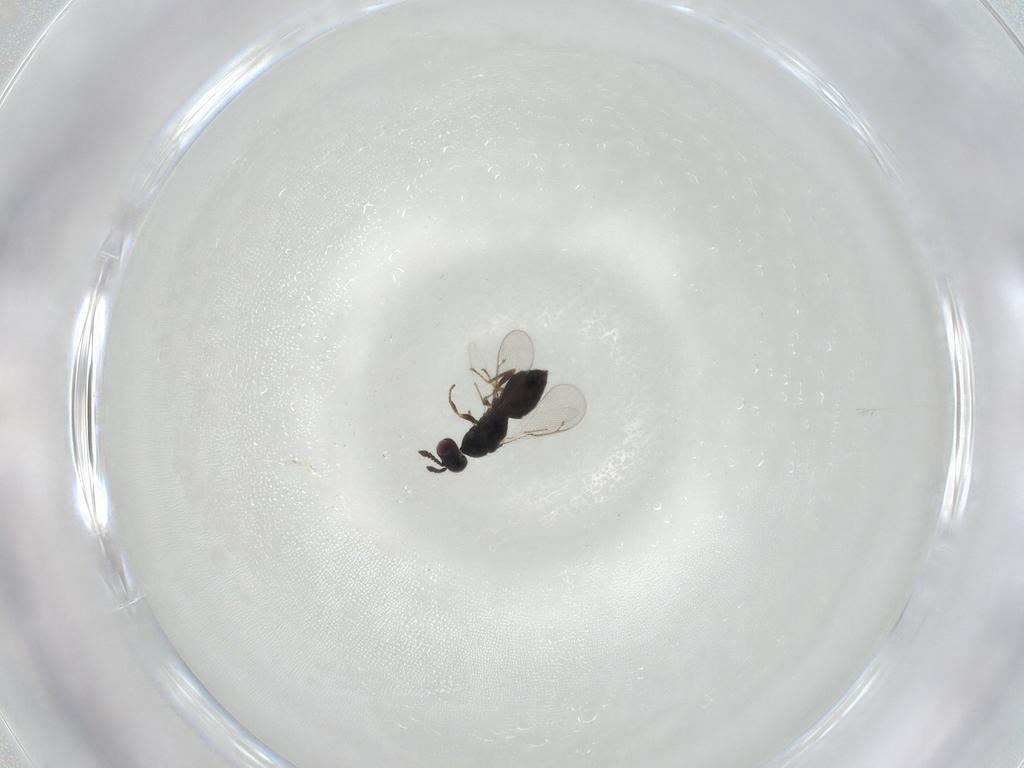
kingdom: Animalia
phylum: Arthropoda
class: Insecta
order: Hymenoptera
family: Eulophidae
